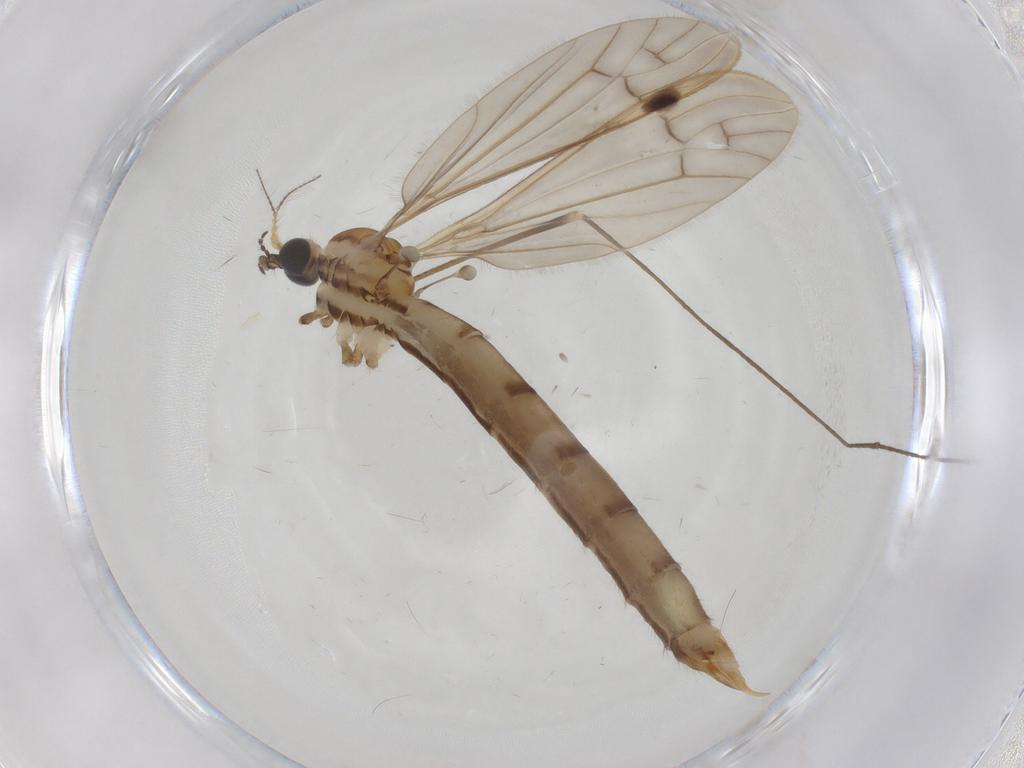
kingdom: Animalia
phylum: Arthropoda
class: Insecta
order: Diptera
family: Limoniidae
